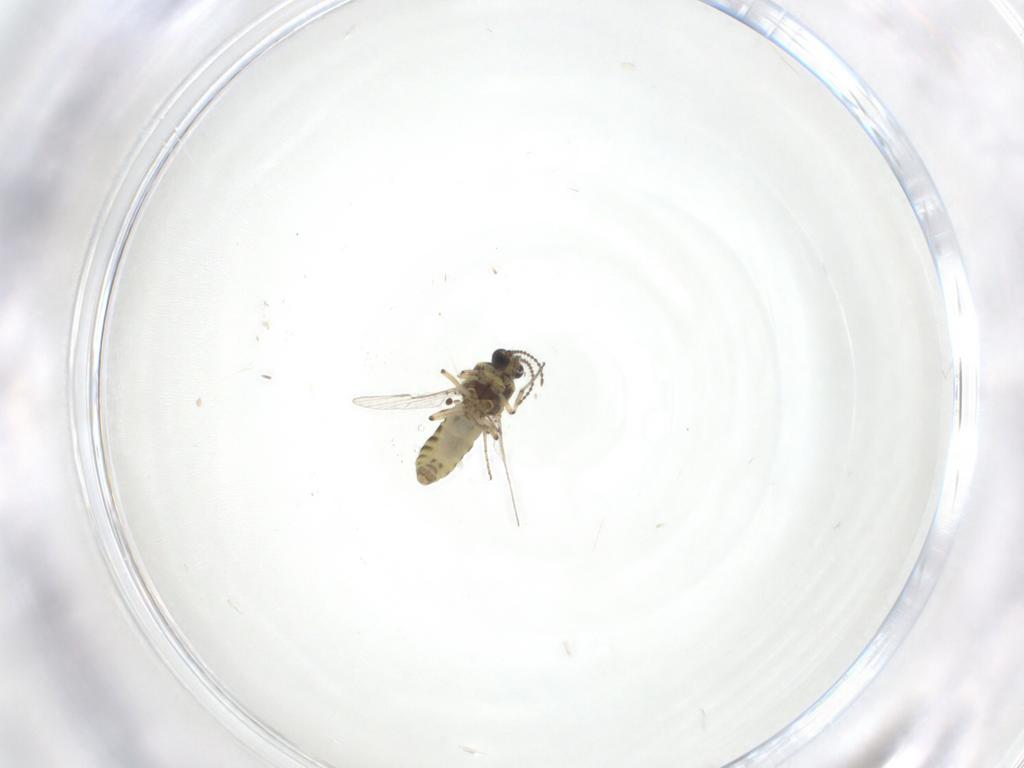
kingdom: Animalia
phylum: Arthropoda
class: Insecta
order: Diptera
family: Ceratopogonidae
